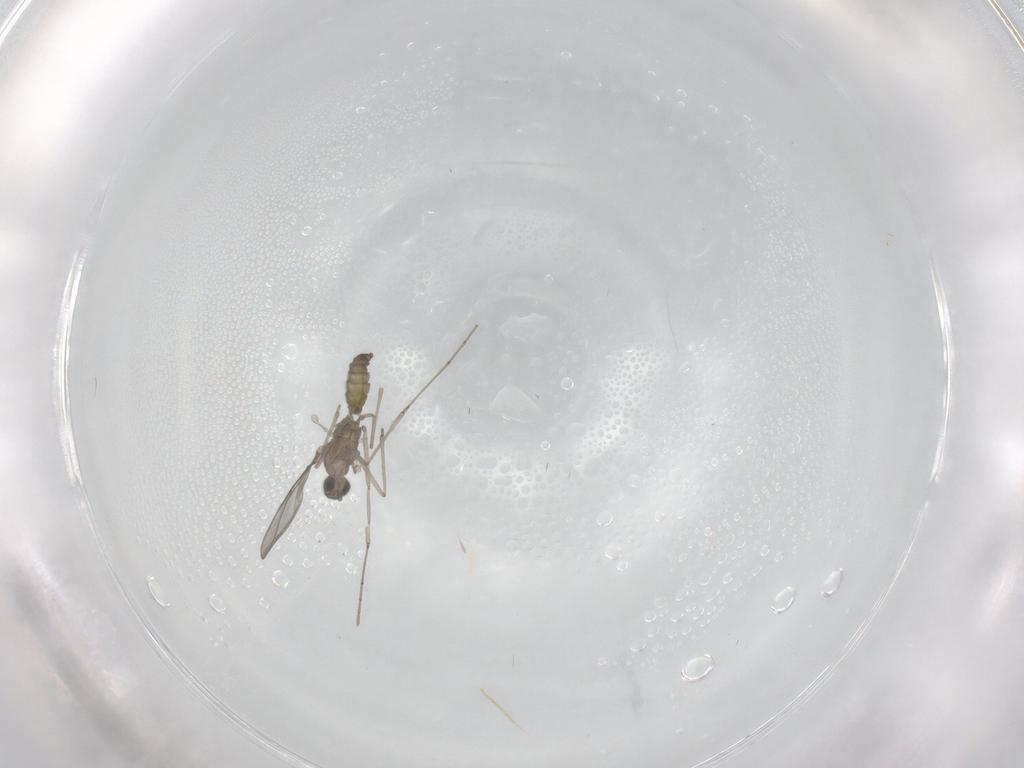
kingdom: Animalia
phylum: Arthropoda
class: Insecta
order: Diptera
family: Cecidomyiidae
